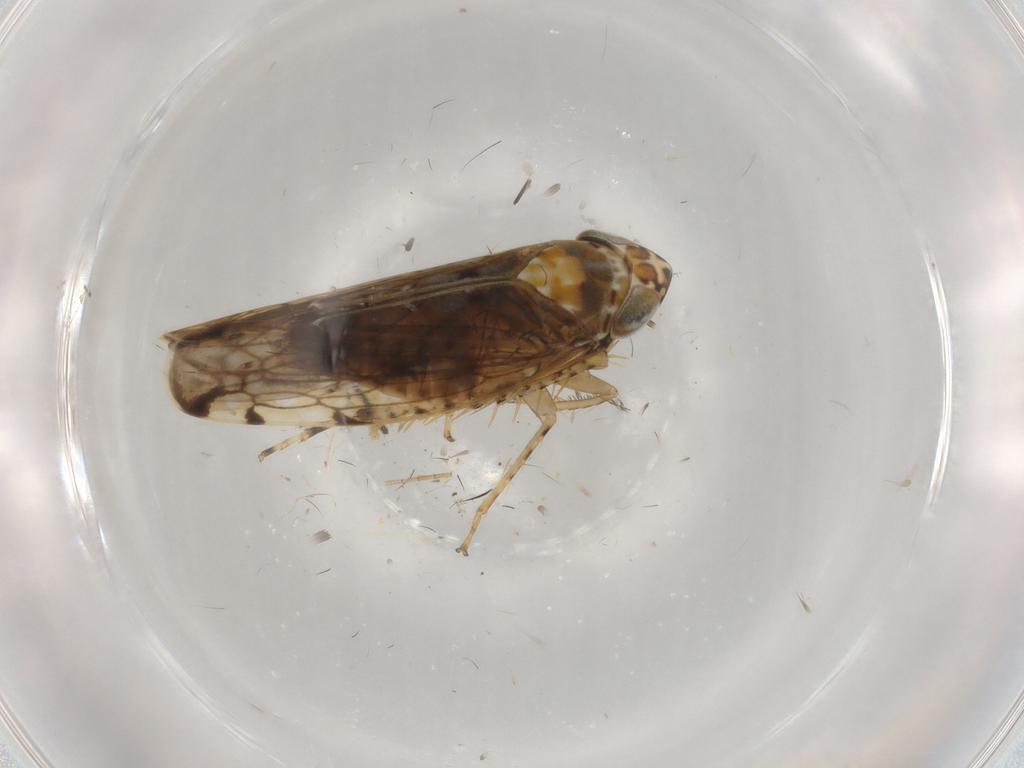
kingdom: Animalia
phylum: Arthropoda
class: Insecta
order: Hemiptera
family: Cicadellidae
